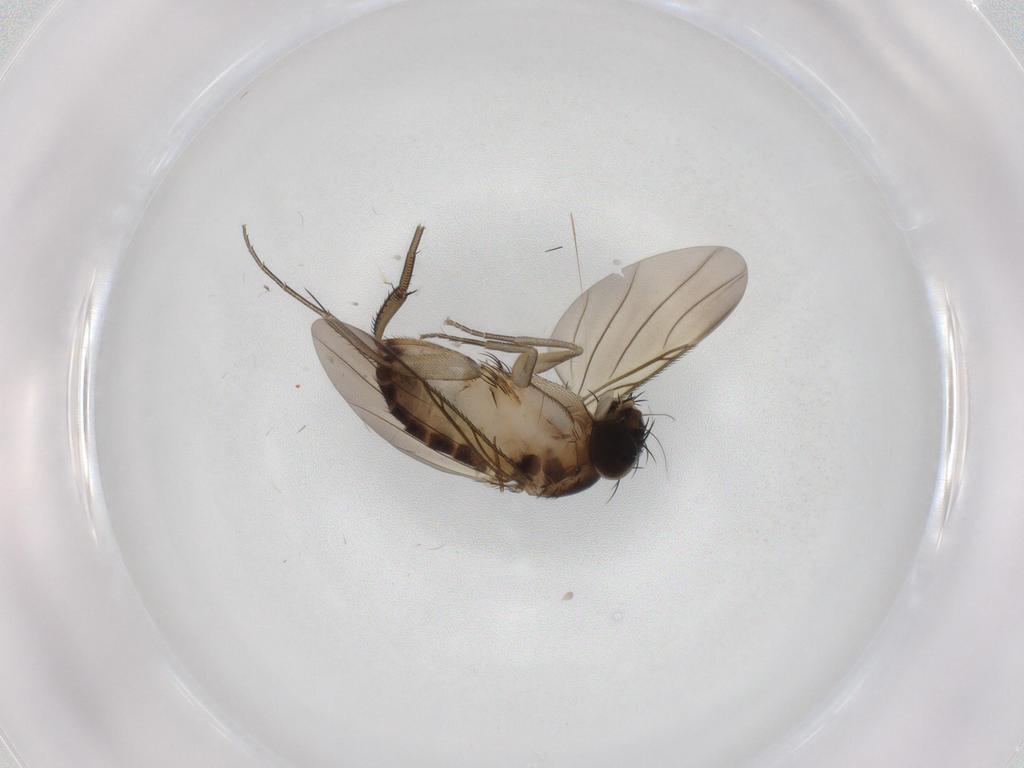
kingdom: Animalia
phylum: Arthropoda
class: Insecta
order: Diptera
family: Phoridae
